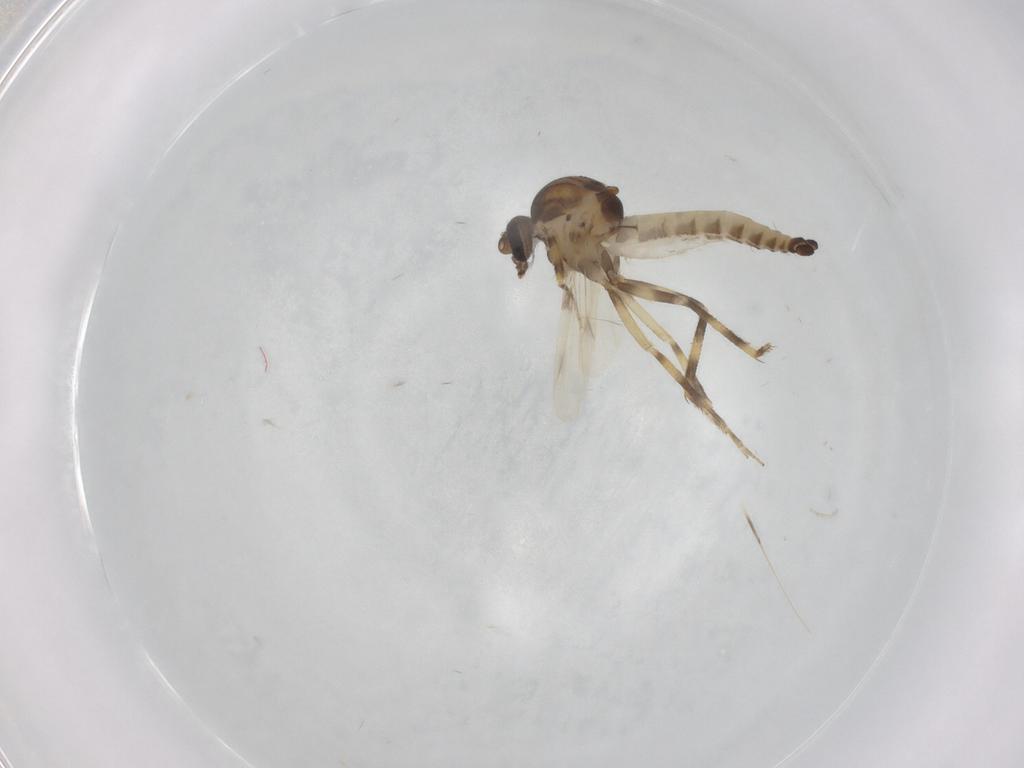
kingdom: Animalia
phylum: Arthropoda
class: Insecta
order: Diptera
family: Ceratopogonidae
